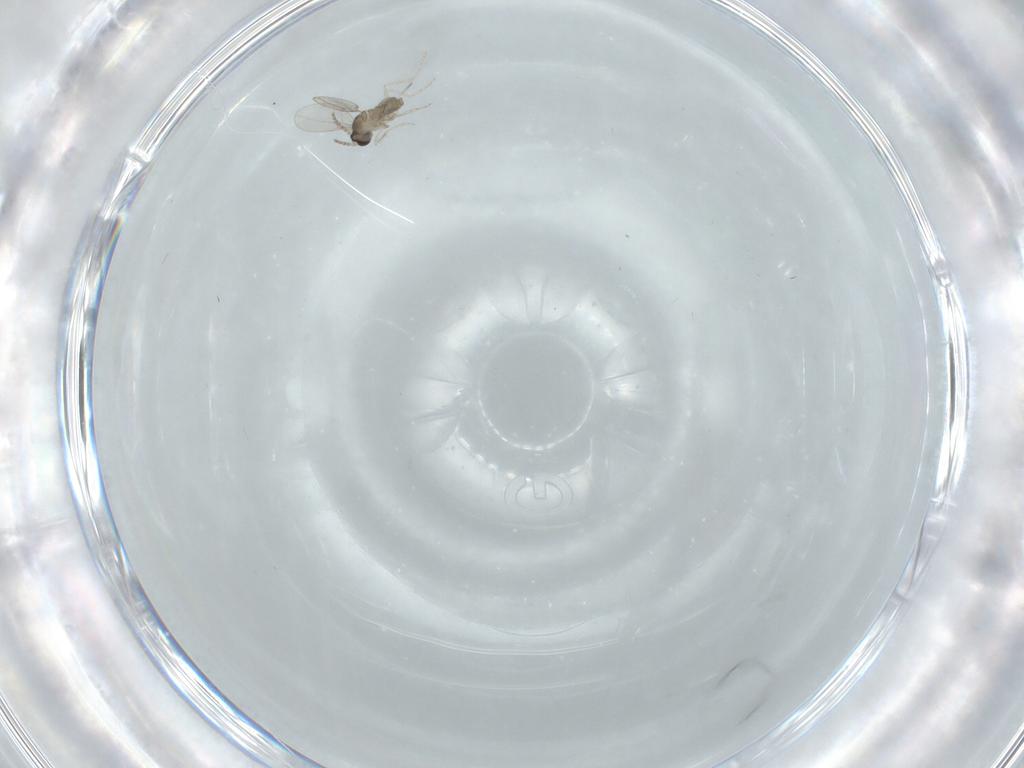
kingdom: Animalia
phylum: Arthropoda
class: Insecta
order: Diptera
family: Cecidomyiidae
